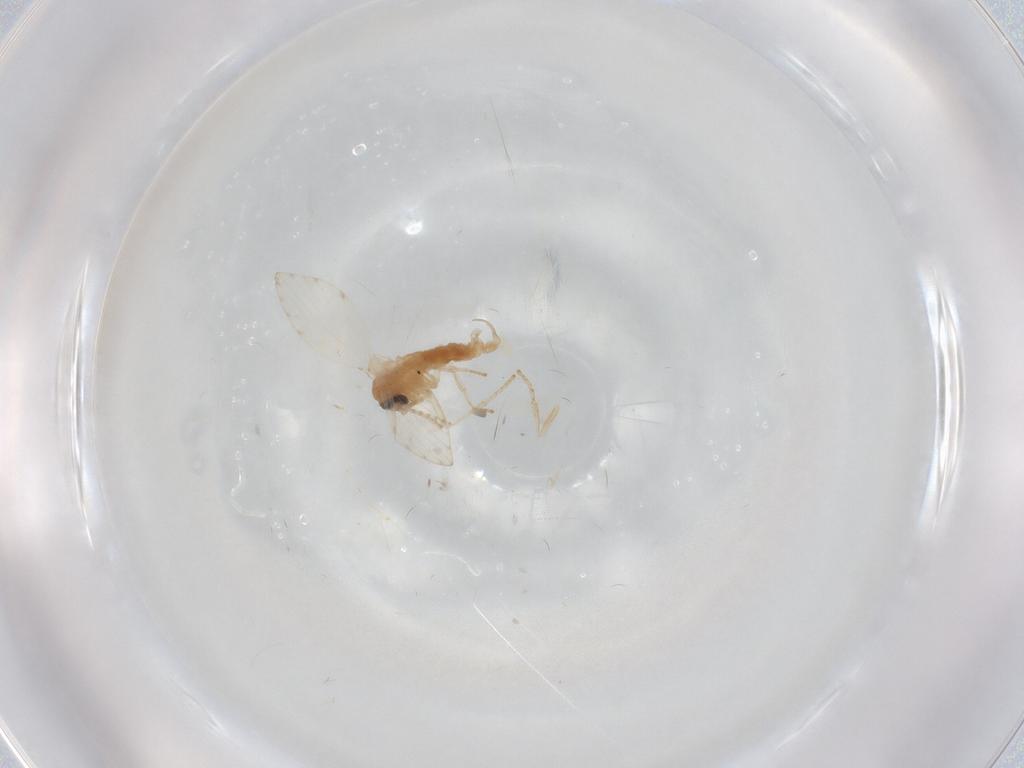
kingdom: Animalia
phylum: Arthropoda
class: Insecta
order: Diptera
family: Psychodidae
